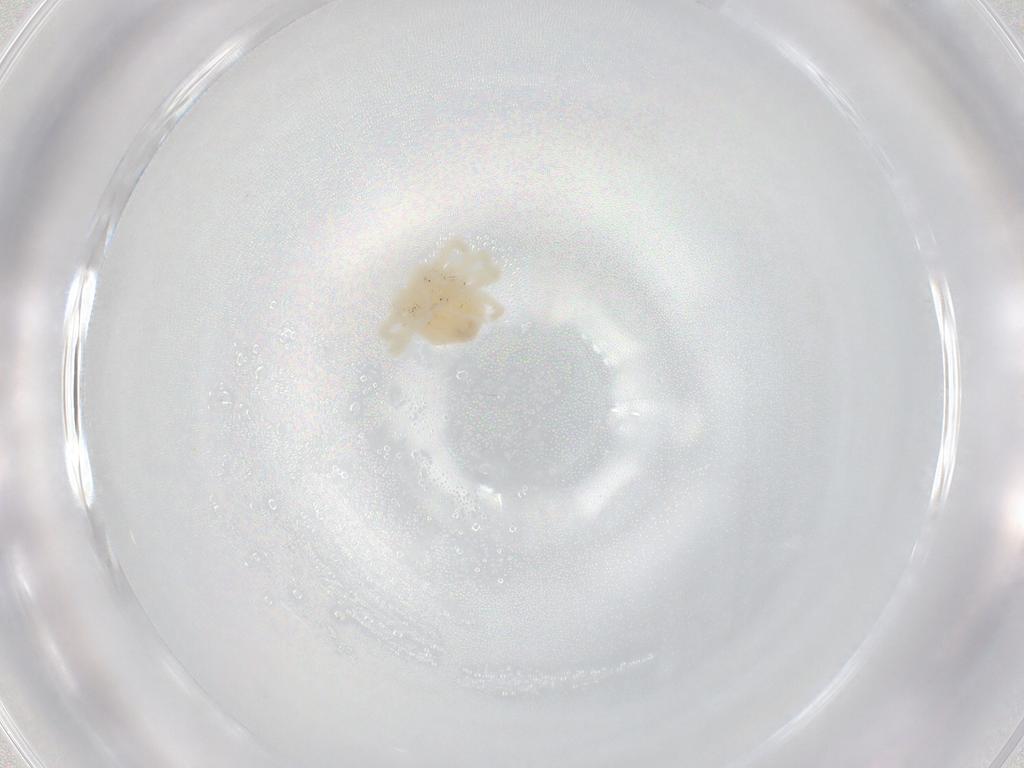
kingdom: Animalia
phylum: Arthropoda
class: Arachnida
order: Trombidiformes
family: Eupodidae
